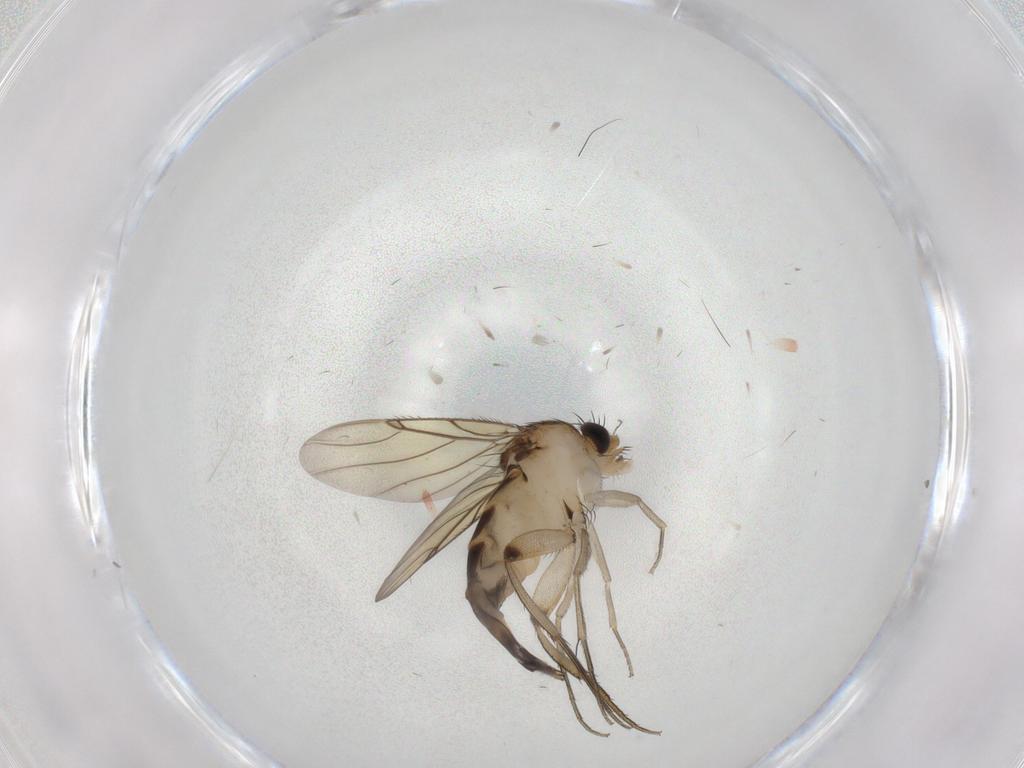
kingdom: Animalia
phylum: Arthropoda
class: Insecta
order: Diptera
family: Phoridae
